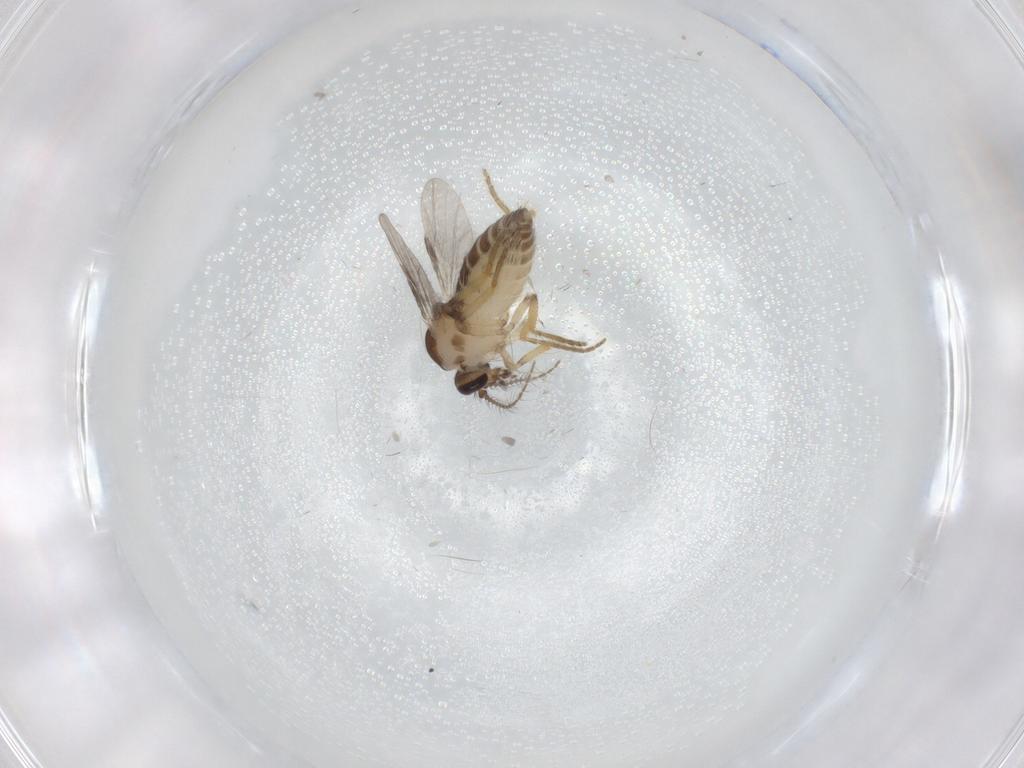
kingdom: Animalia
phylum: Arthropoda
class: Insecta
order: Diptera
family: Ceratopogonidae
